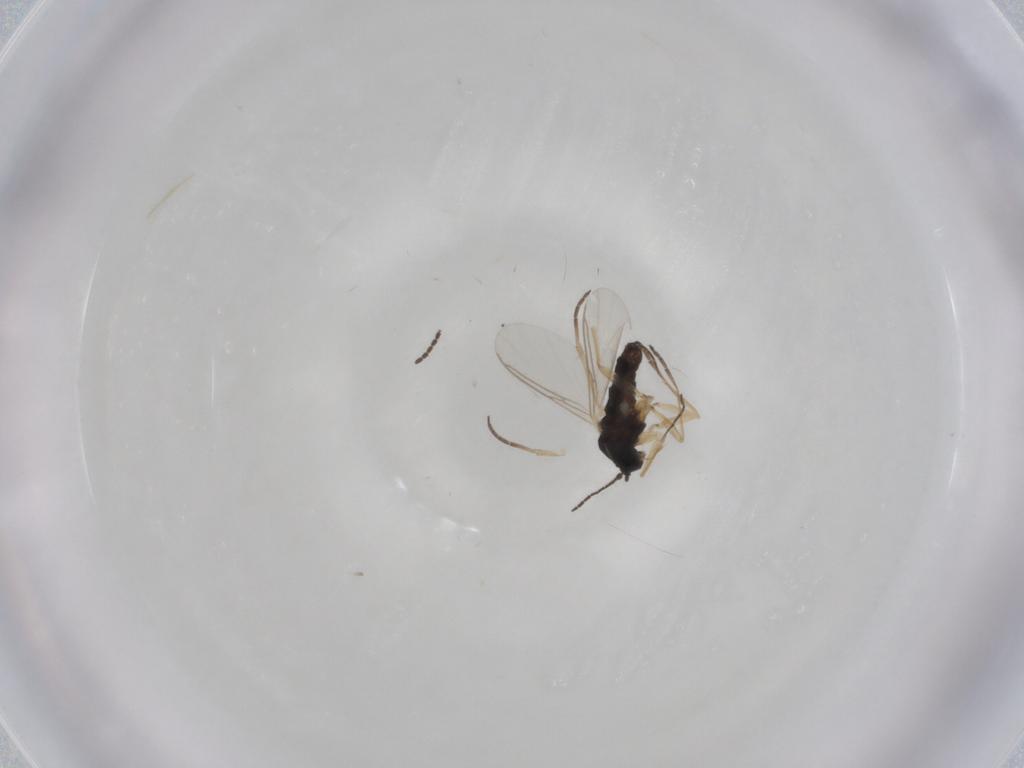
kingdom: Animalia
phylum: Arthropoda
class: Insecta
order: Diptera
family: Sciaridae
